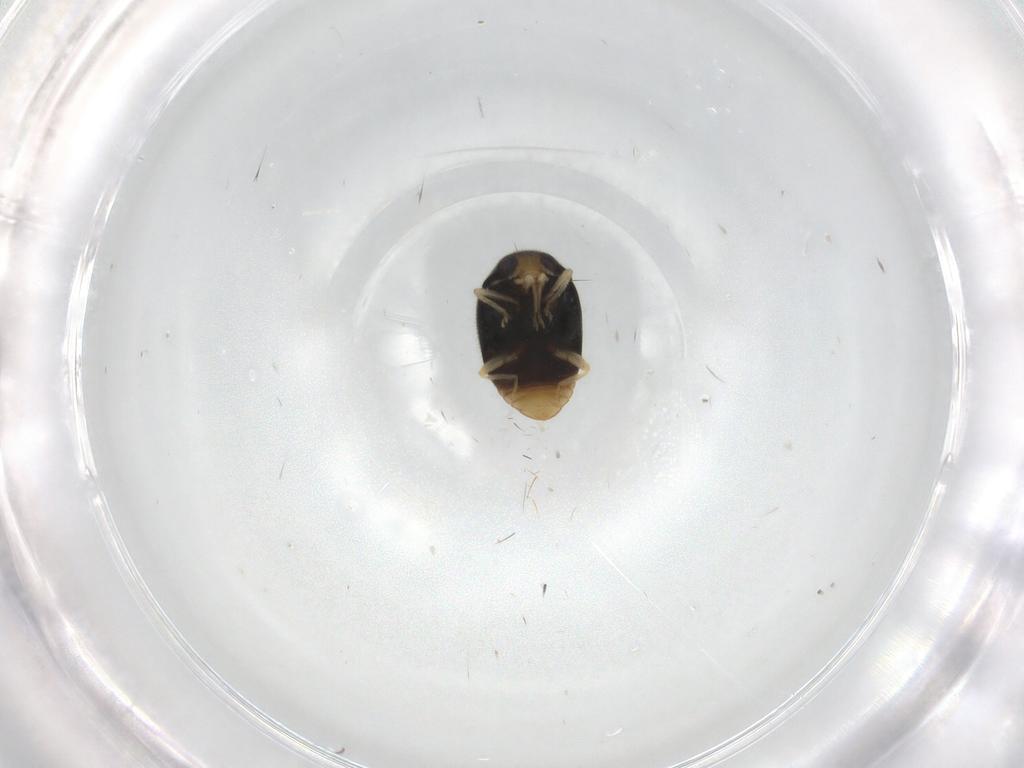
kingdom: Animalia
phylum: Arthropoda
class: Insecta
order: Coleoptera
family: Coccinellidae
